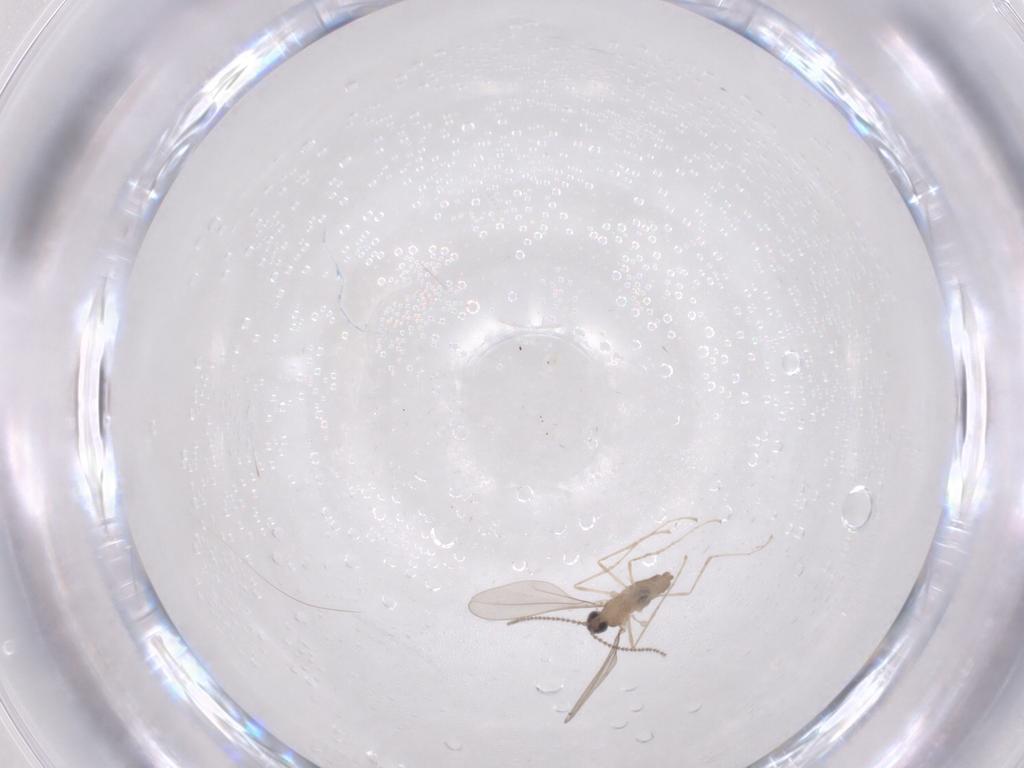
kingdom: Animalia
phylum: Arthropoda
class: Insecta
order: Diptera
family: Cecidomyiidae
